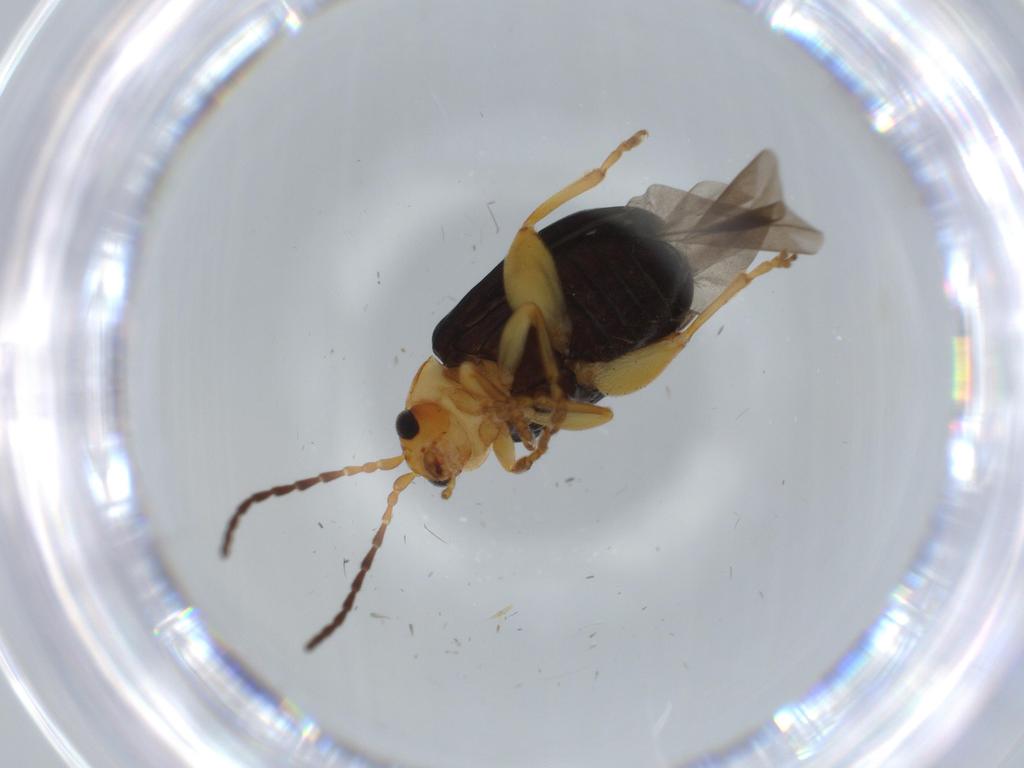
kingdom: Animalia
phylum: Arthropoda
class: Insecta
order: Coleoptera
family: Chrysomelidae
